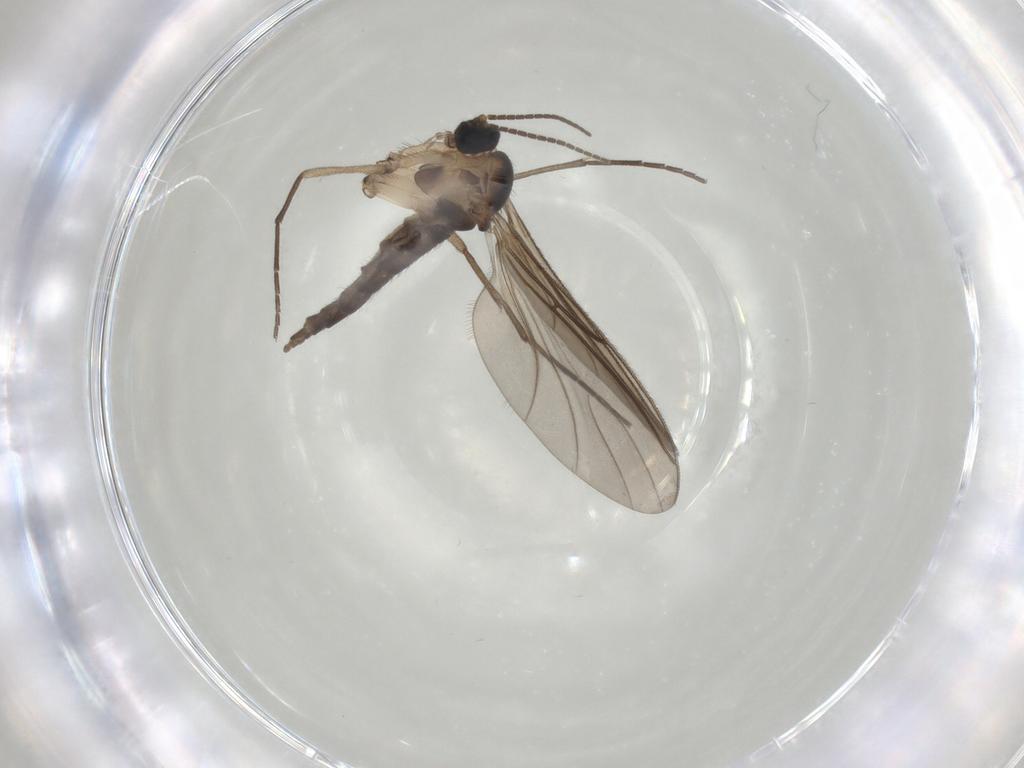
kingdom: Animalia
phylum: Arthropoda
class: Insecta
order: Diptera
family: Sciaridae
